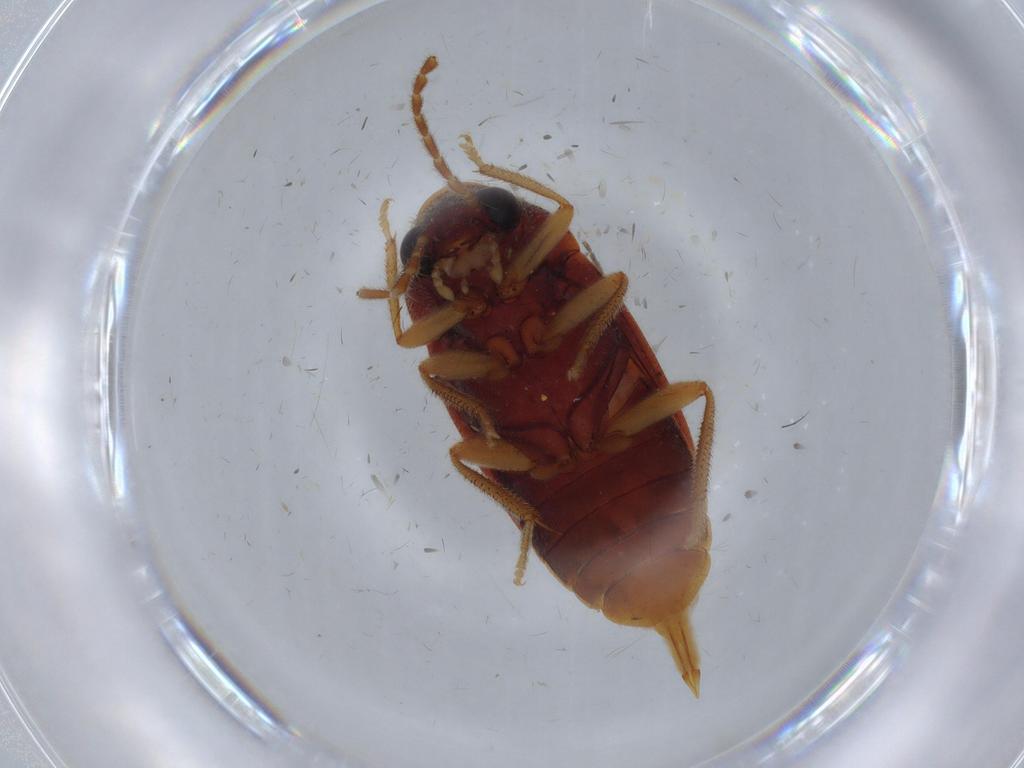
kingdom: Animalia
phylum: Arthropoda
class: Insecta
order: Coleoptera
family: Ptilodactylidae
